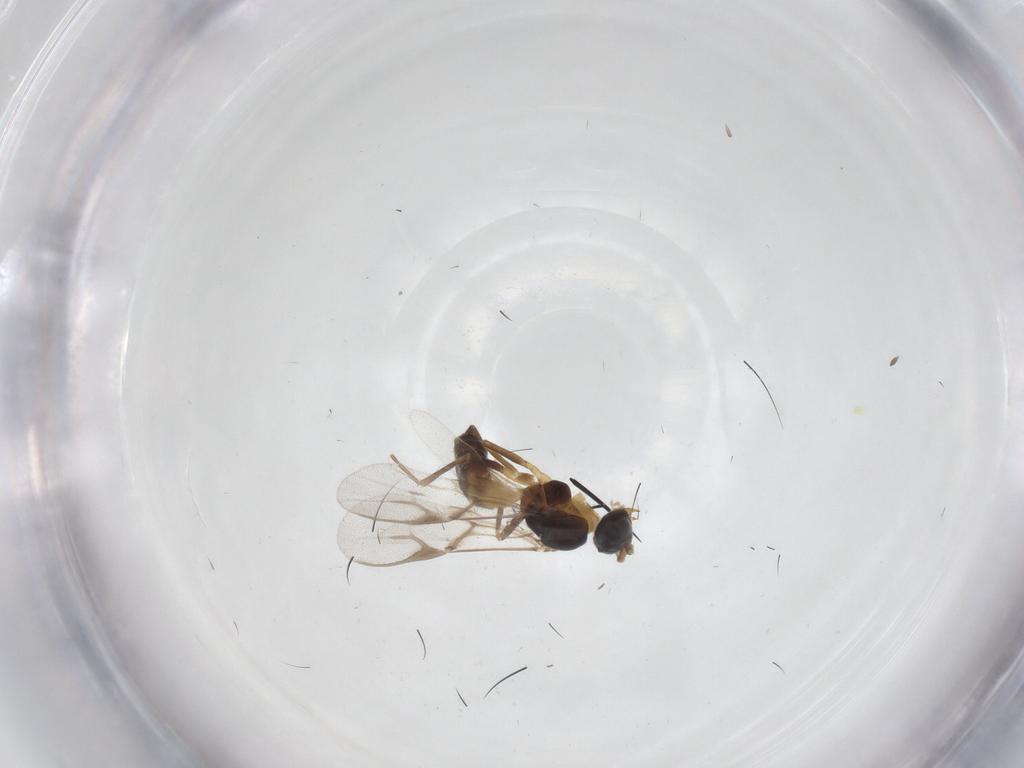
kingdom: Animalia
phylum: Arthropoda
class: Insecta
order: Hymenoptera
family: Braconidae
